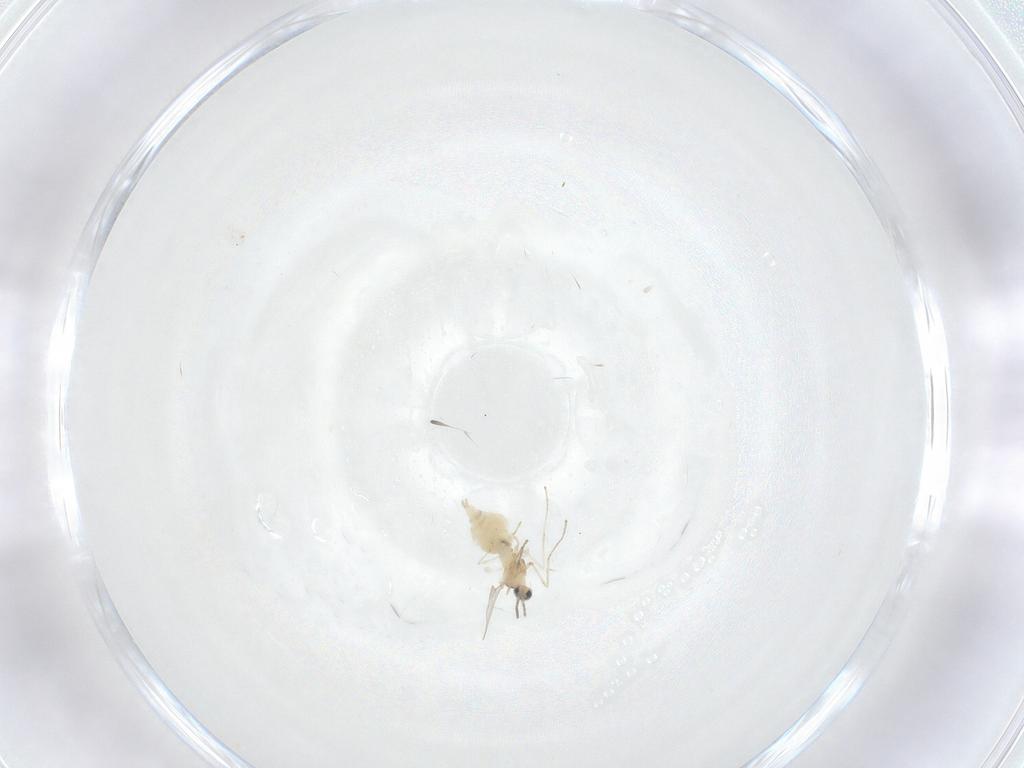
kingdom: Animalia
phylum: Arthropoda
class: Insecta
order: Diptera
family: Cecidomyiidae
